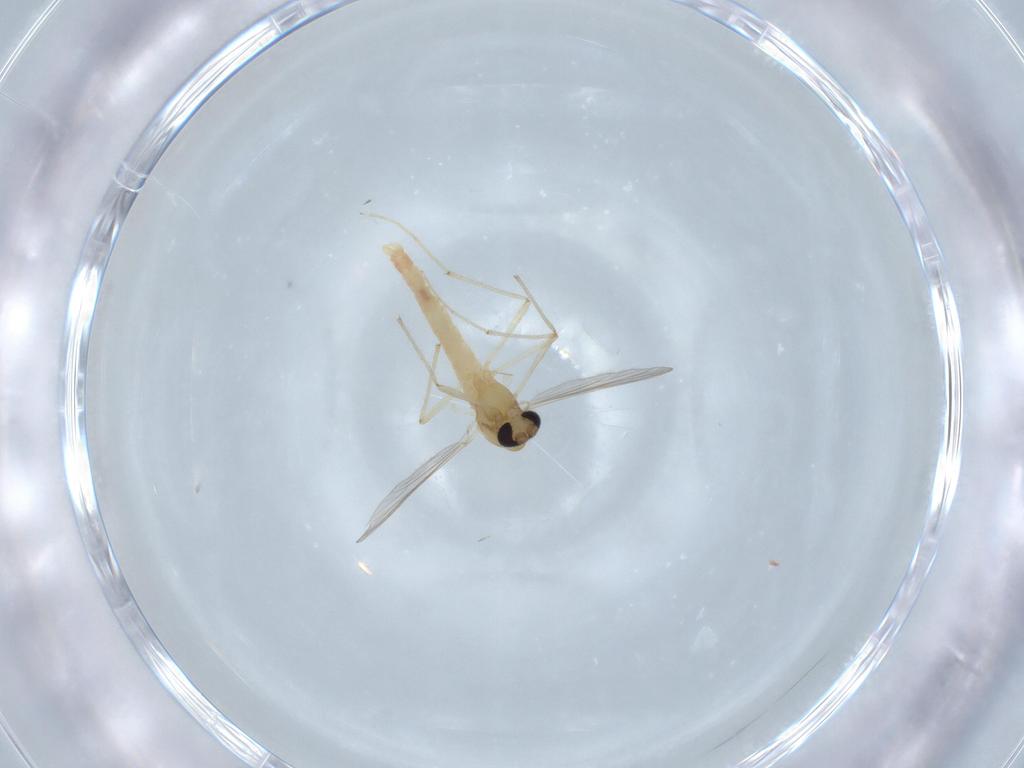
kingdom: Animalia
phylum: Arthropoda
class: Insecta
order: Diptera
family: Chironomidae
